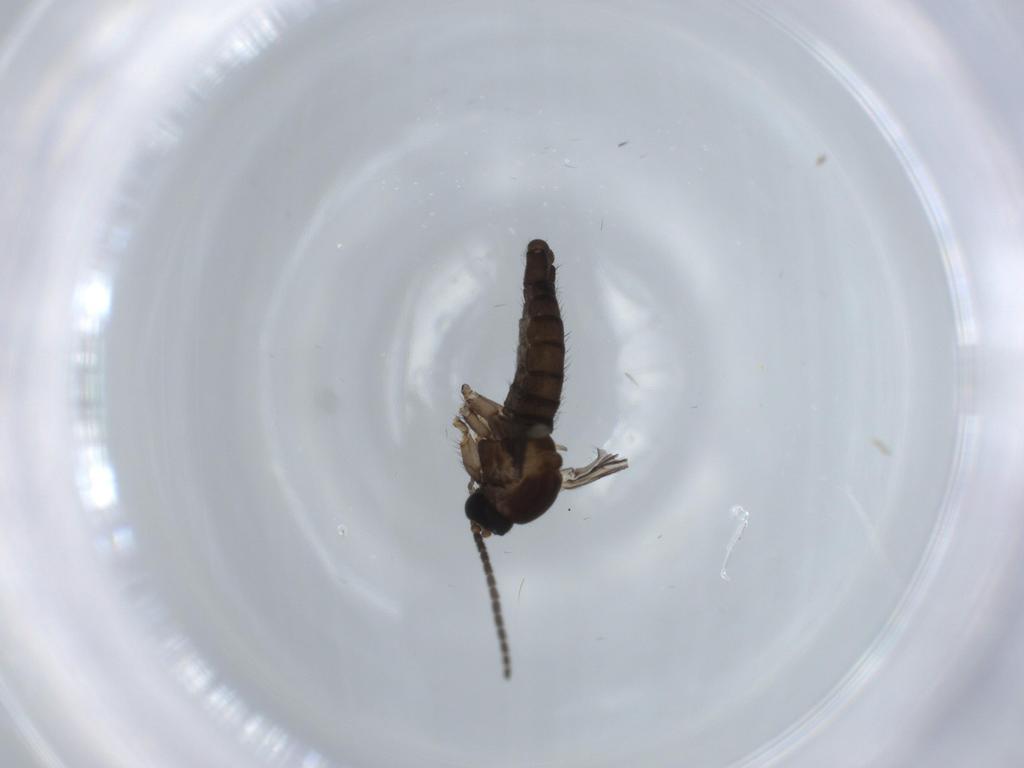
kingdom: Animalia
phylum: Arthropoda
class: Insecta
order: Diptera
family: Sciaridae
